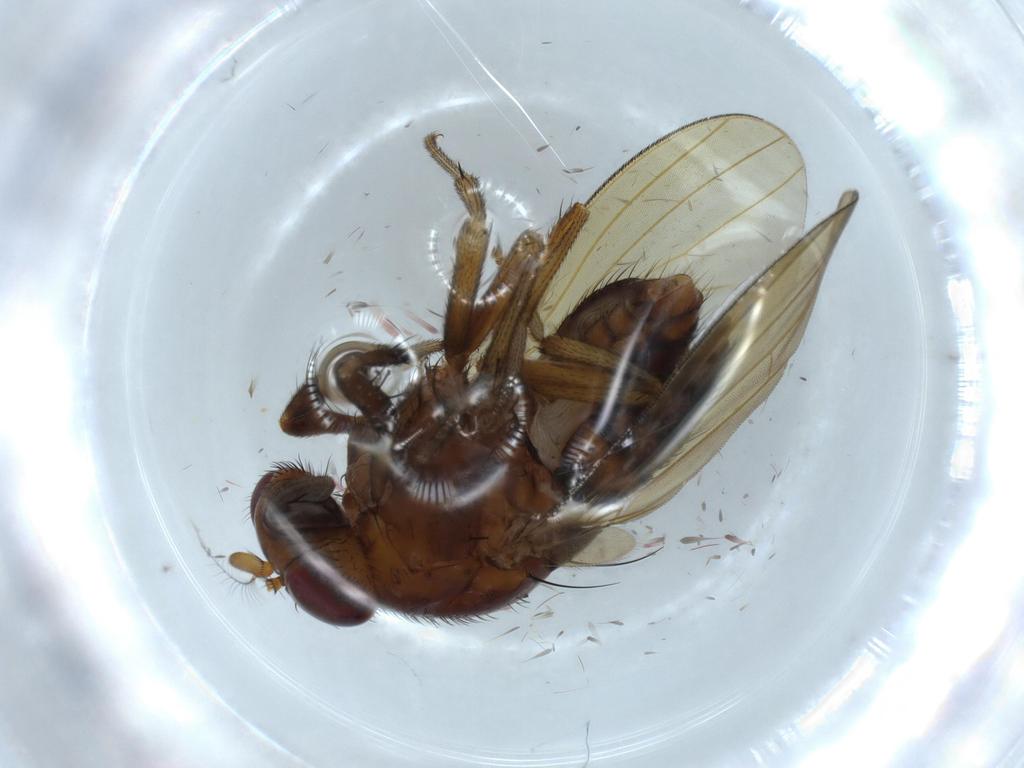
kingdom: Animalia
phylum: Arthropoda
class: Insecta
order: Diptera
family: Sciaridae
